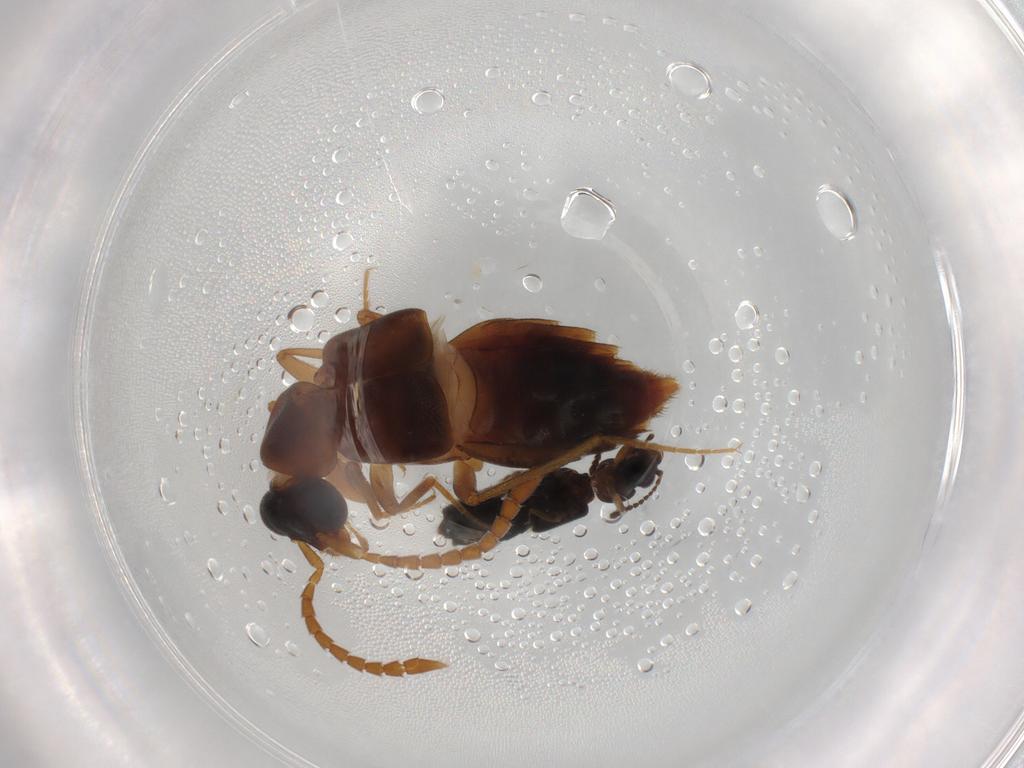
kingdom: Animalia
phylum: Arthropoda
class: Insecta
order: Coleoptera
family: Staphylinidae
